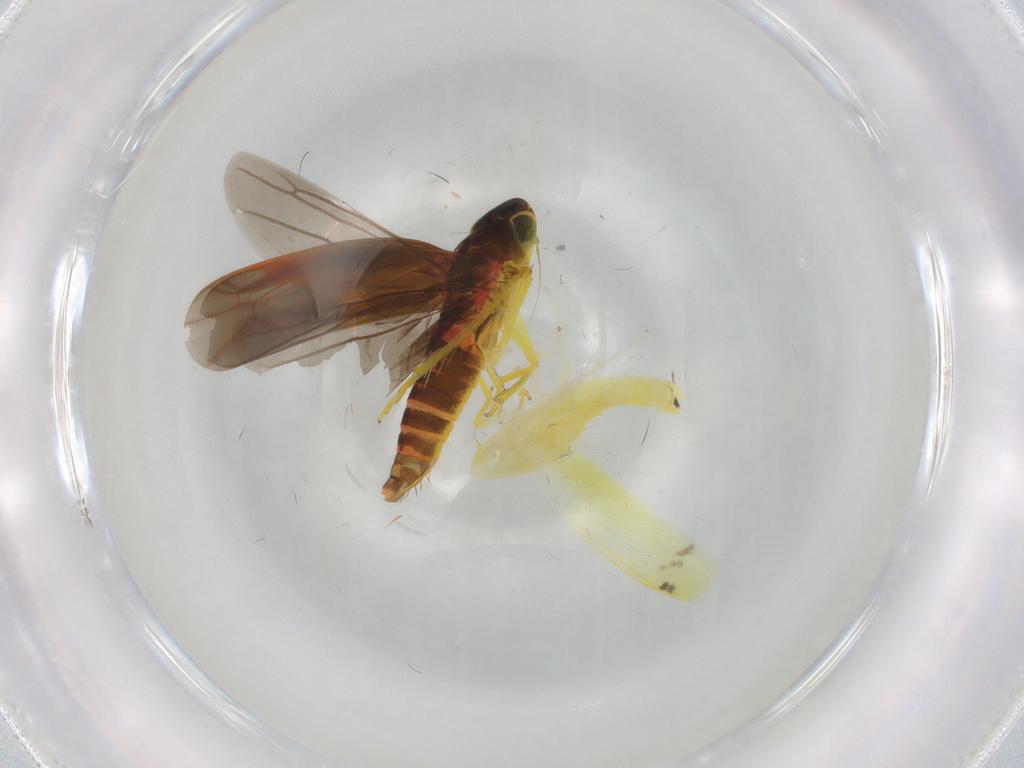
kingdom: Animalia
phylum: Arthropoda
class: Insecta
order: Hemiptera
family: Cicadellidae
